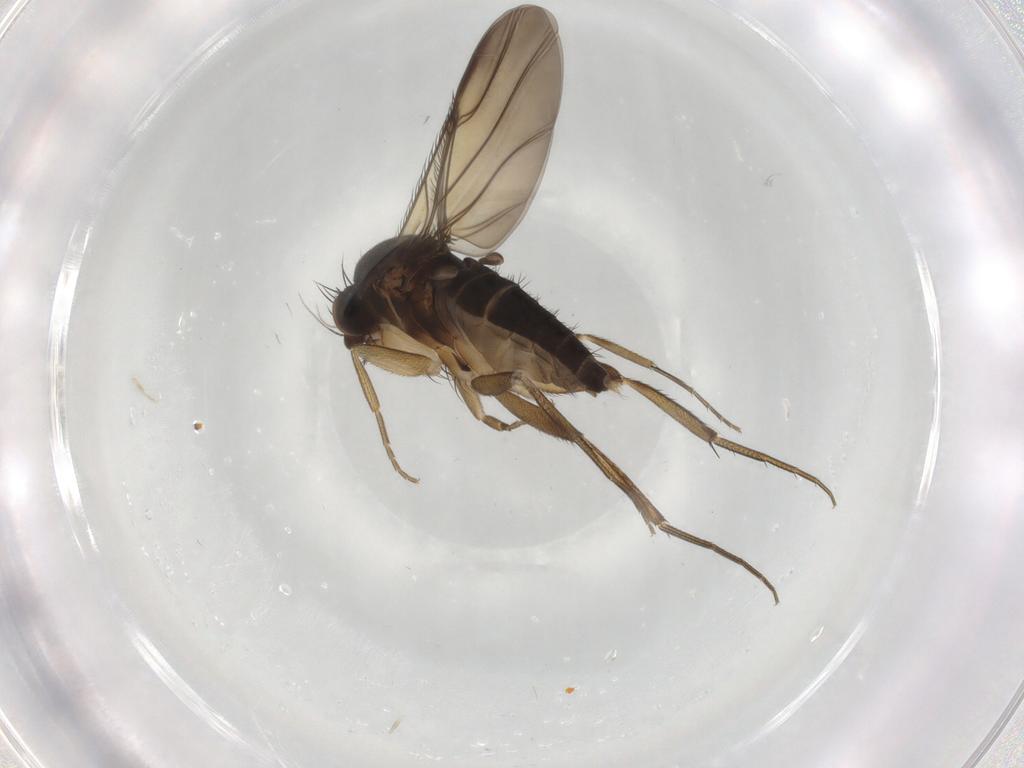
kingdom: Animalia
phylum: Arthropoda
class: Insecta
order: Diptera
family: Phoridae
